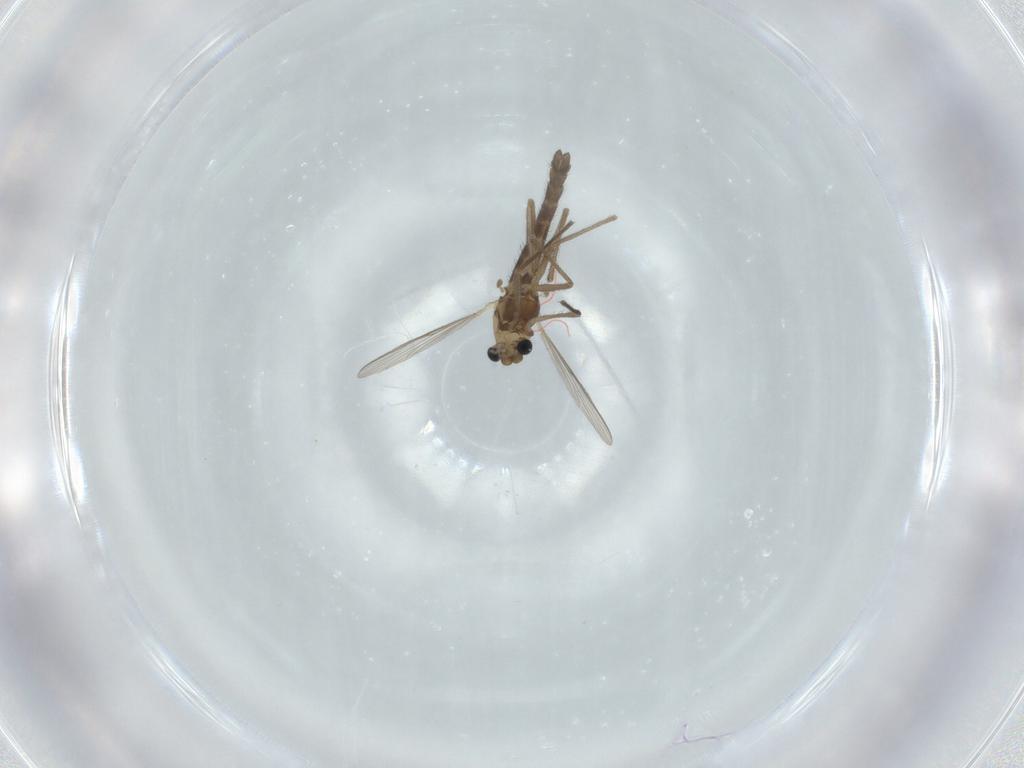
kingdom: Animalia
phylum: Arthropoda
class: Insecta
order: Diptera
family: Chironomidae
